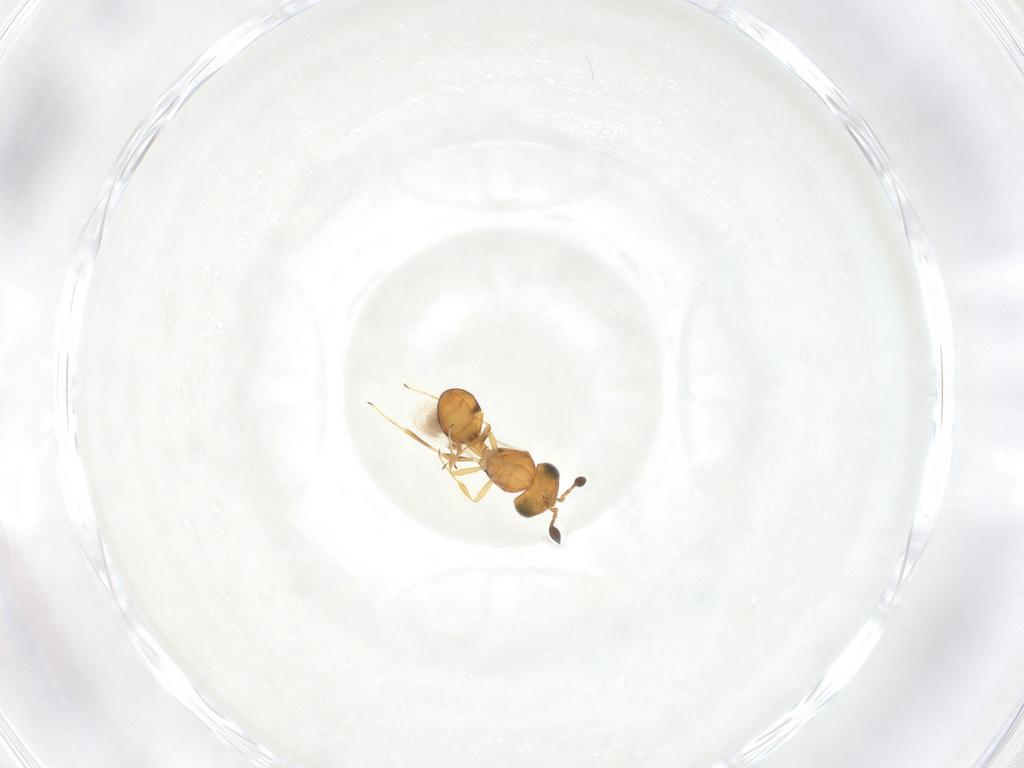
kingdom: Animalia
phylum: Arthropoda
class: Insecta
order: Hymenoptera
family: Scelionidae
